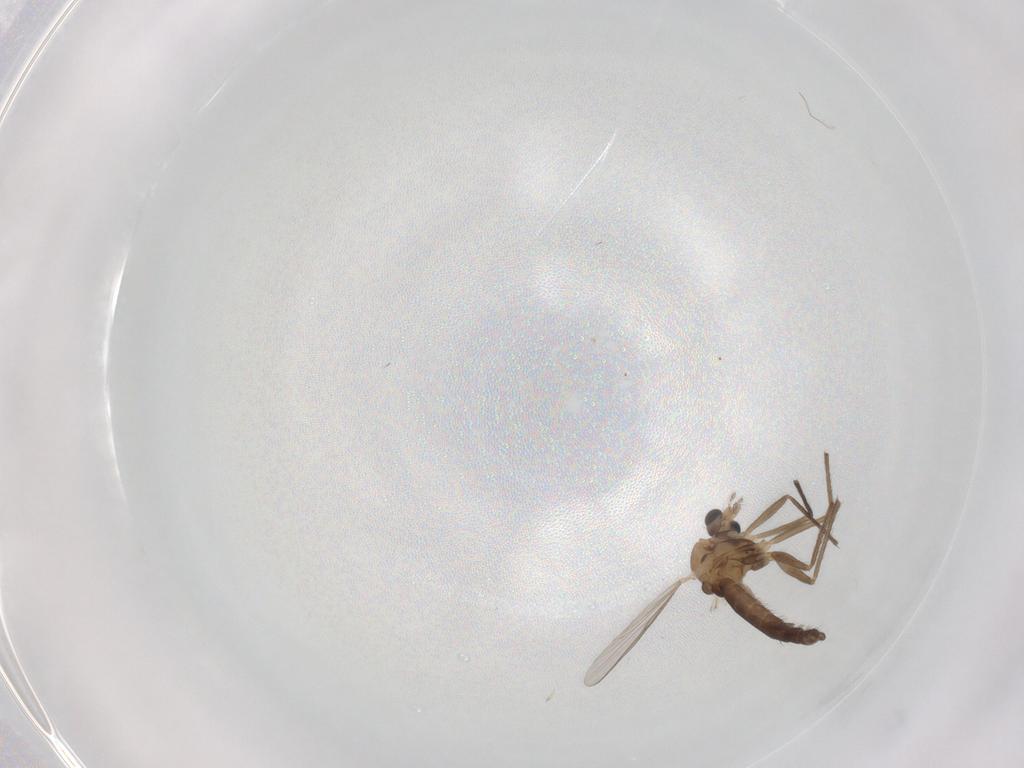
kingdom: Animalia
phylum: Arthropoda
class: Insecta
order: Diptera
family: Chironomidae
